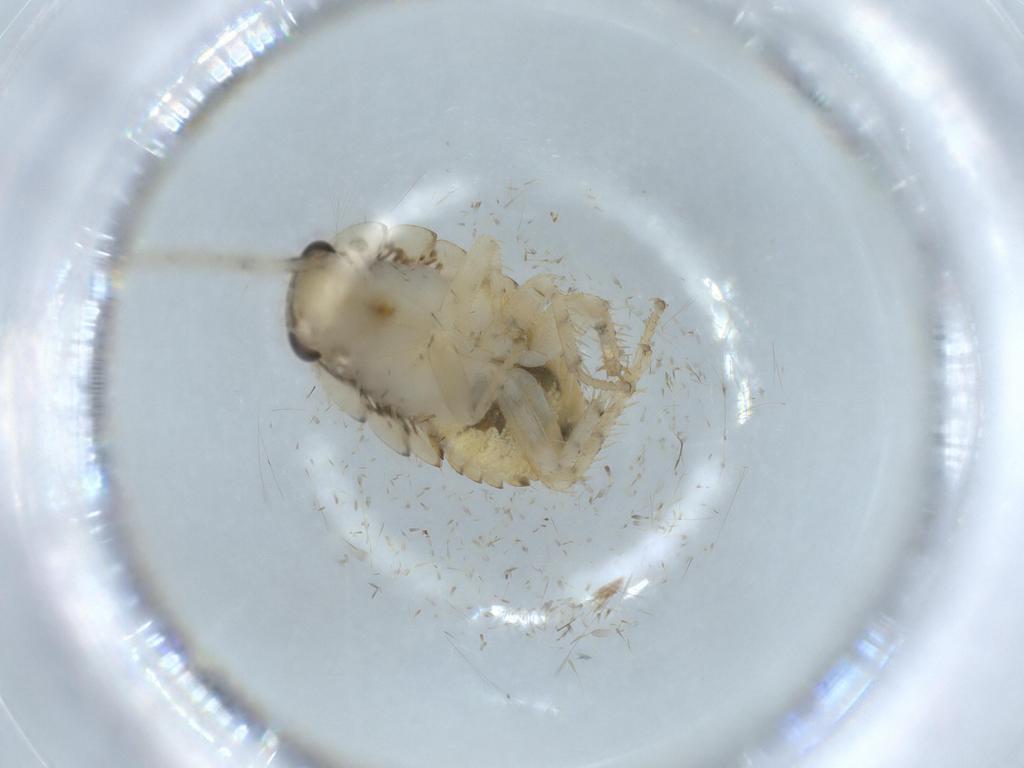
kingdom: Animalia
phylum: Arthropoda
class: Insecta
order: Blattodea
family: Ectobiidae
